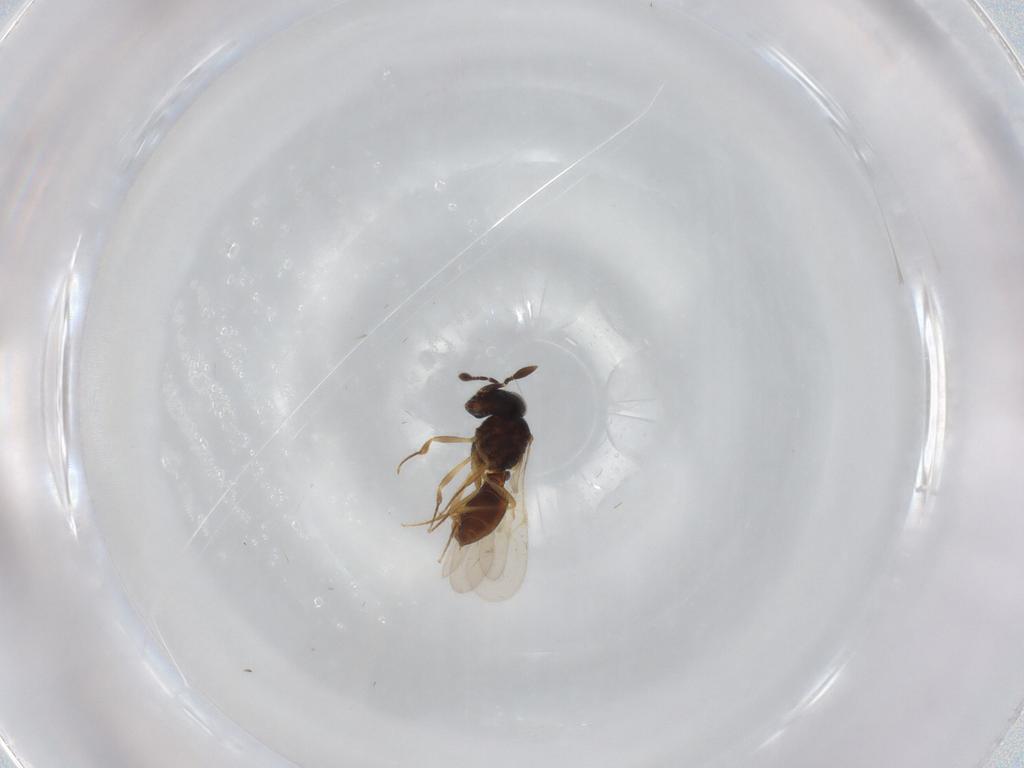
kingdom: Animalia
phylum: Arthropoda
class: Insecta
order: Hymenoptera
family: Scelionidae
